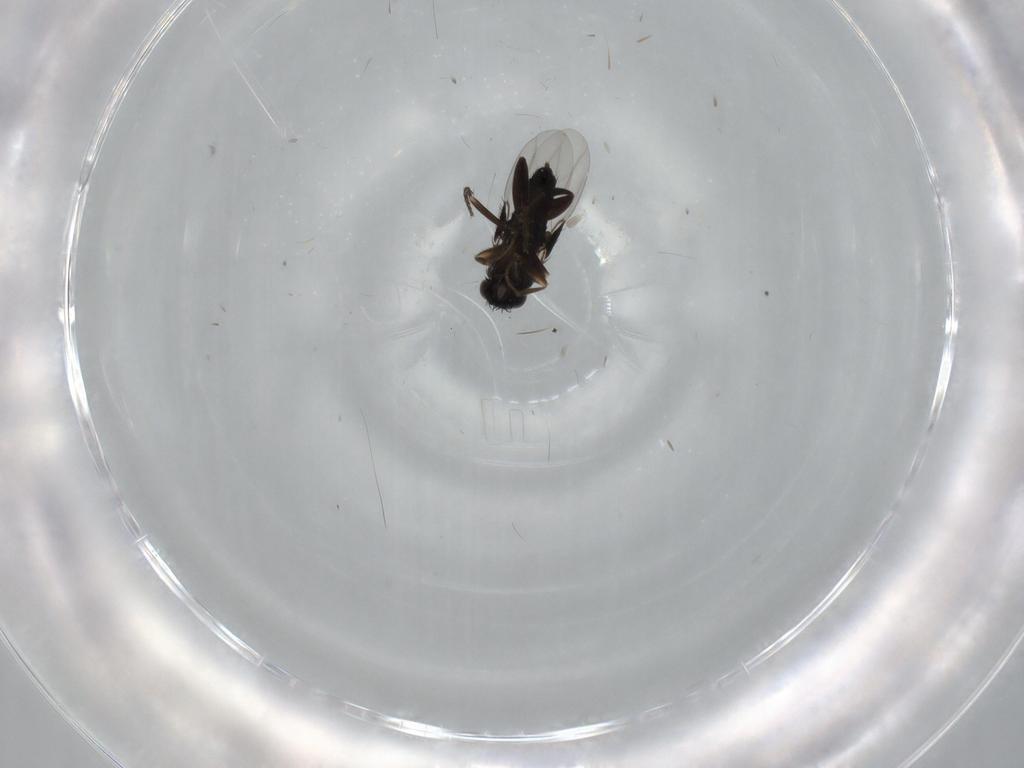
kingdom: Animalia
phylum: Arthropoda
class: Insecta
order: Diptera
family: Phoridae
